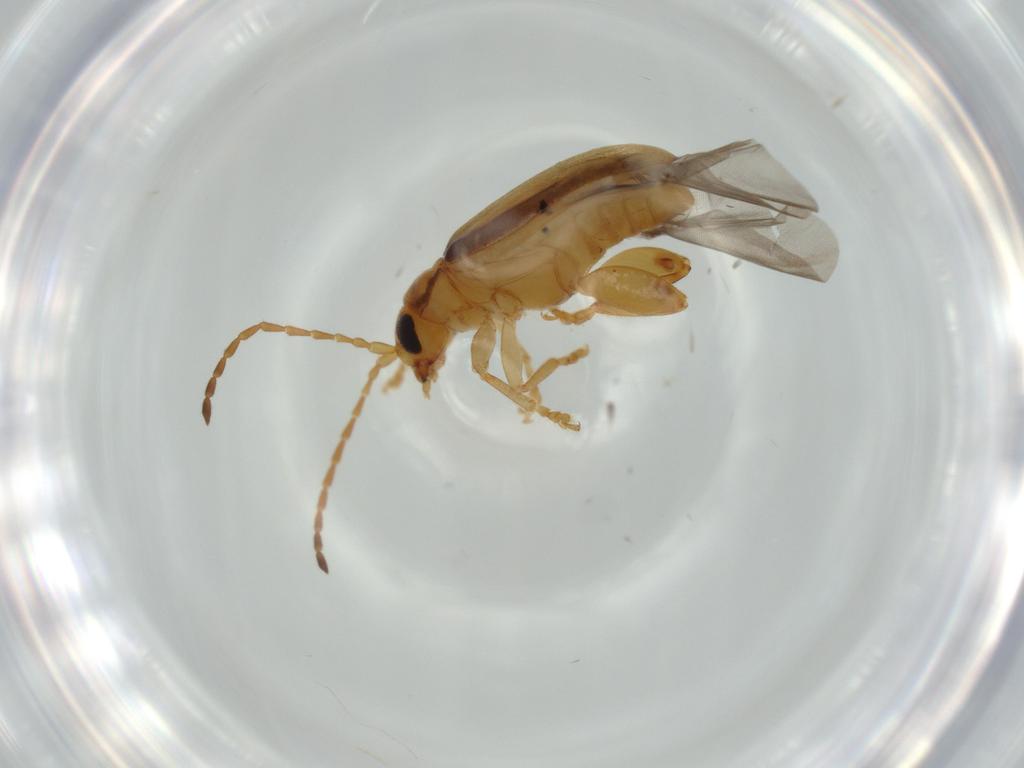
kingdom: Animalia
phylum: Arthropoda
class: Insecta
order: Coleoptera
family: Chrysomelidae
